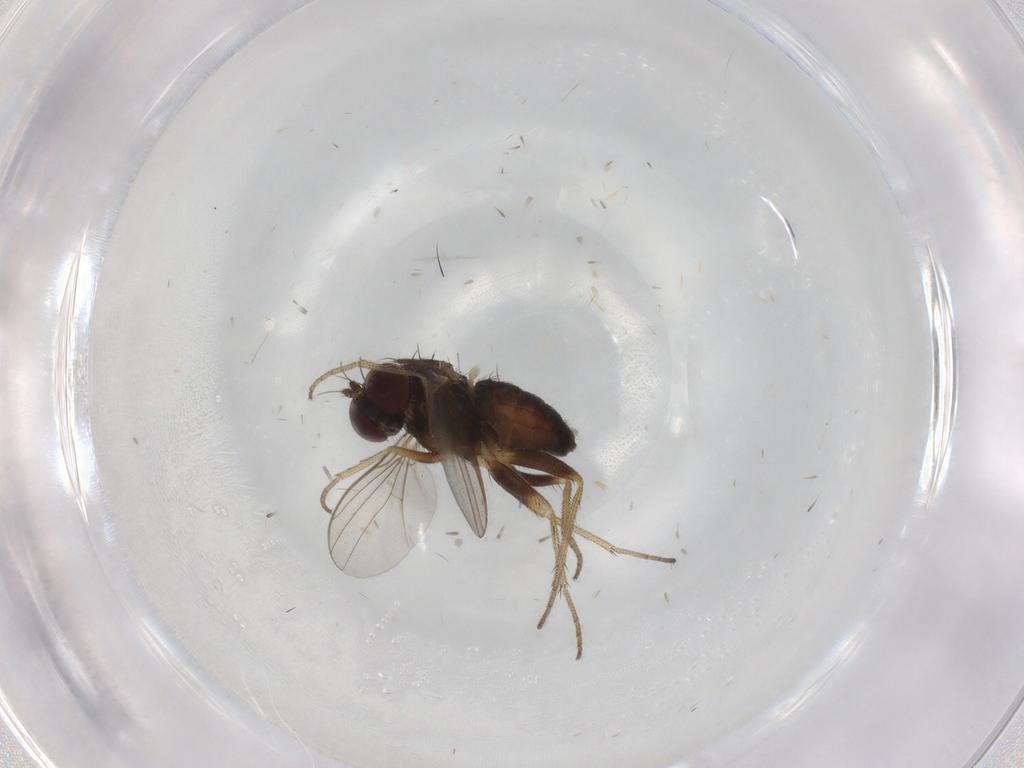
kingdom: Animalia
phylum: Arthropoda
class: Insecta
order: Diptera
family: Dolichopodidae
